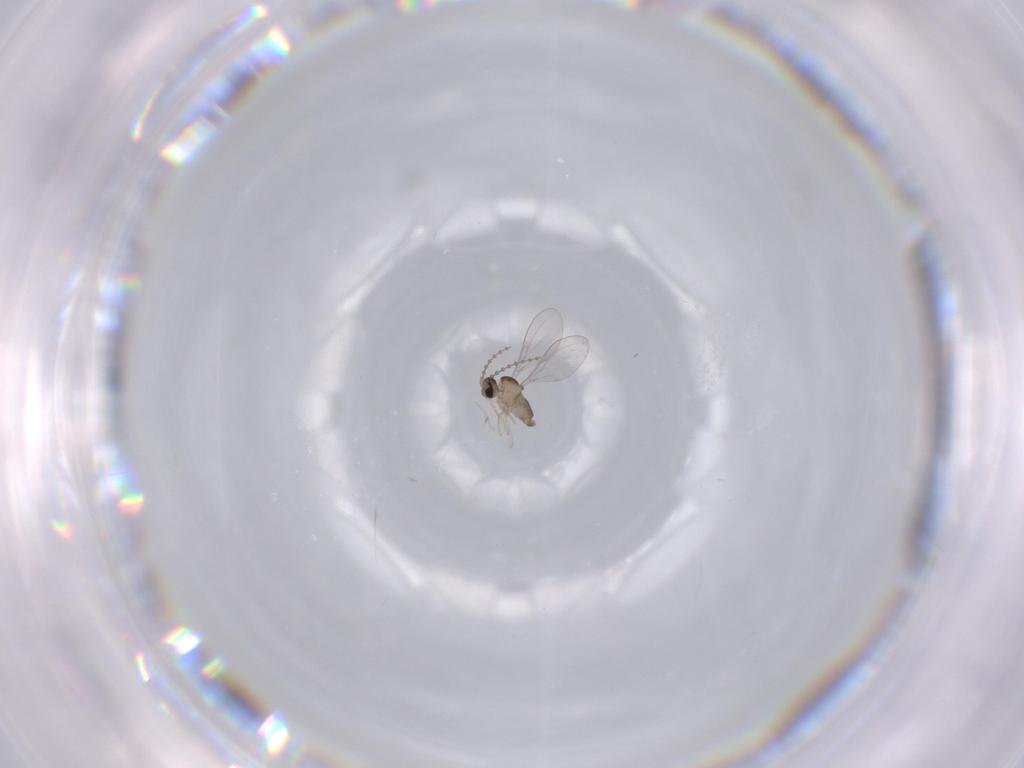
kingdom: Animalia
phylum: Arthropoda
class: Insecta
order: Diptera
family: Cecidomyiidae
